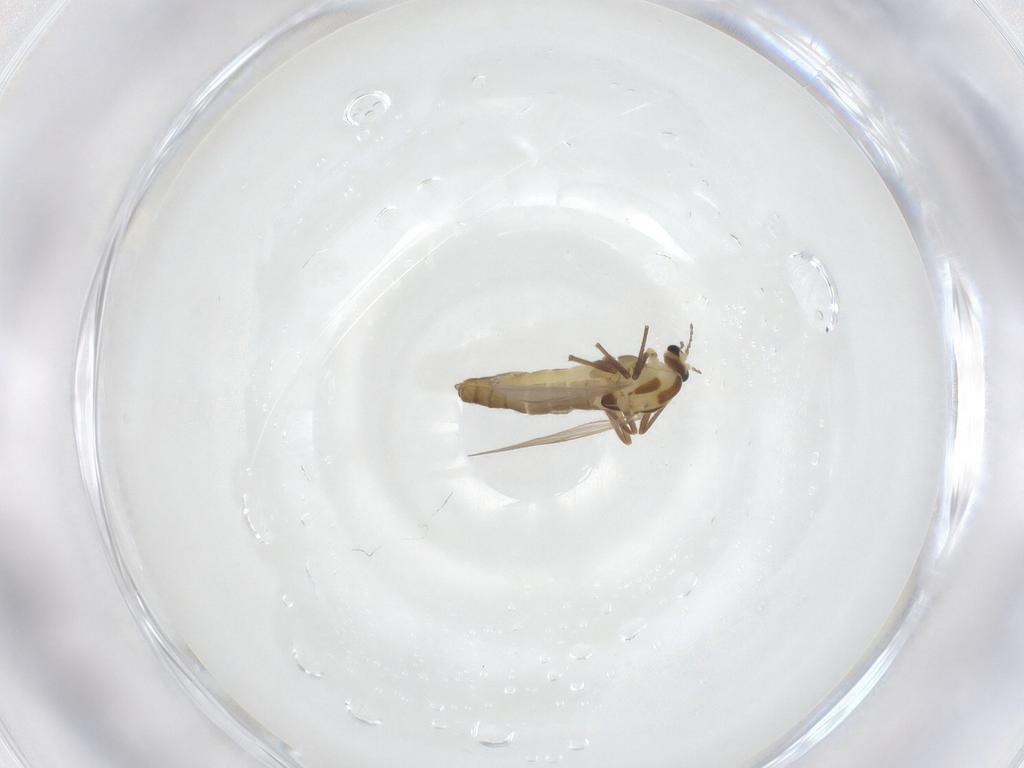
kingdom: Animalia
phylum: Arthropoda
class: Insecta
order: Diptera
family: Chironomidae
